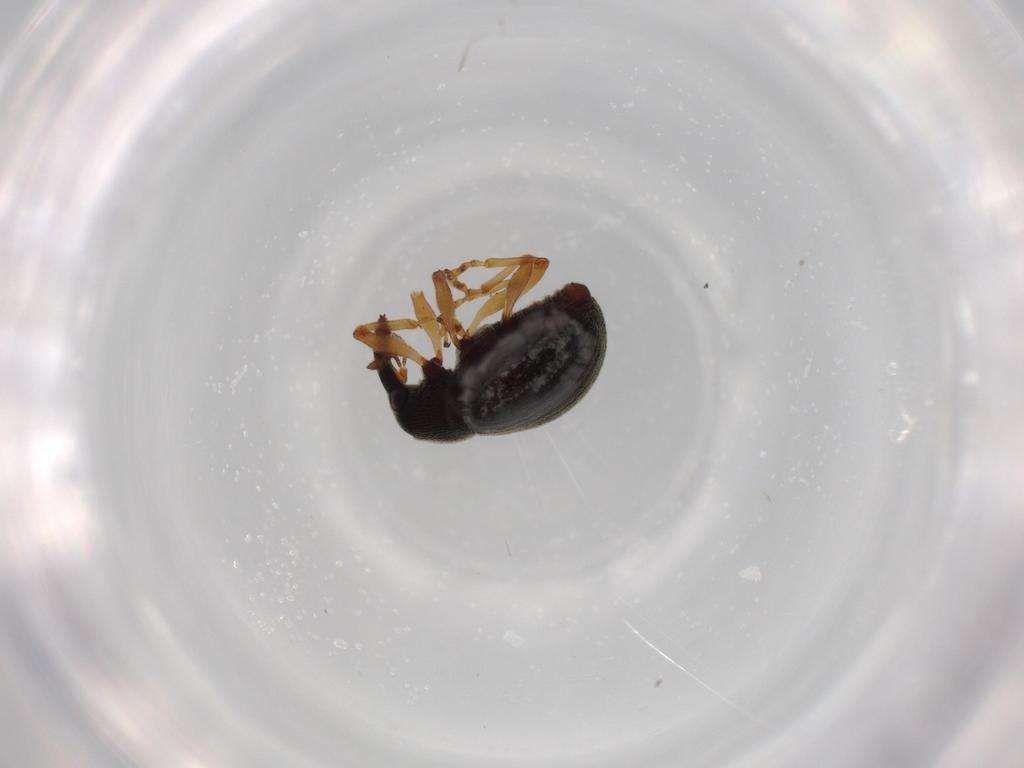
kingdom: Animalia
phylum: Arthropoda
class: Insecta
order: Coleoptera
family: Curculionidae
